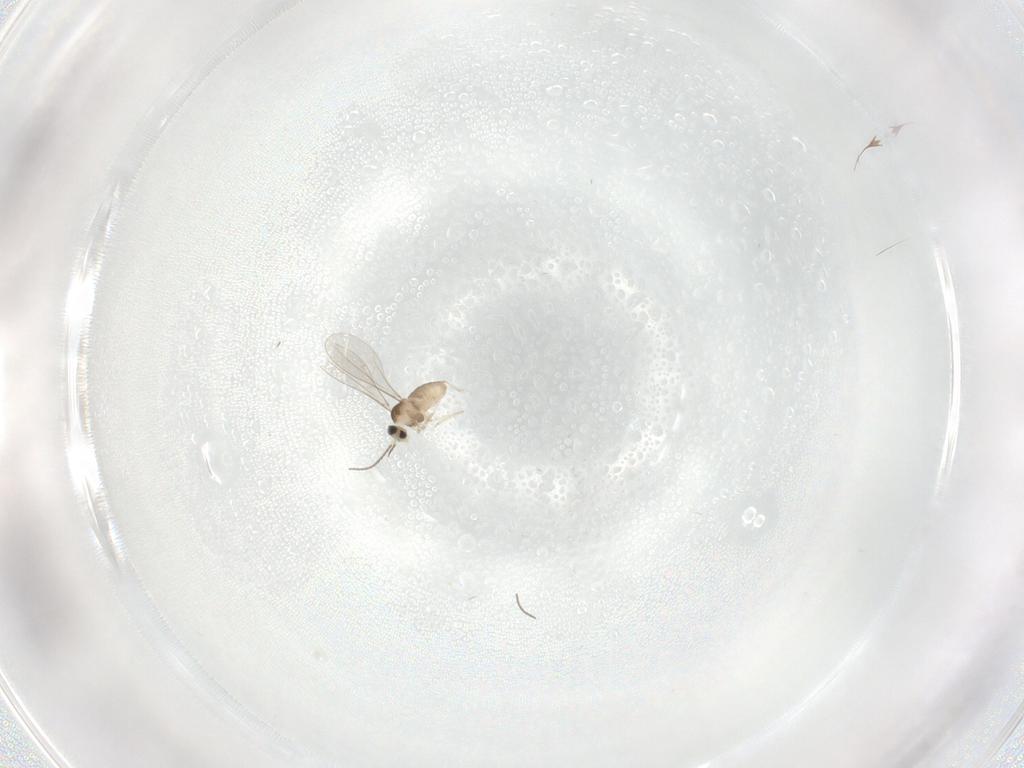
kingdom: Animalia
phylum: Arthropoda
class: Insecta
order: Diptera
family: Cecidomyiidae
